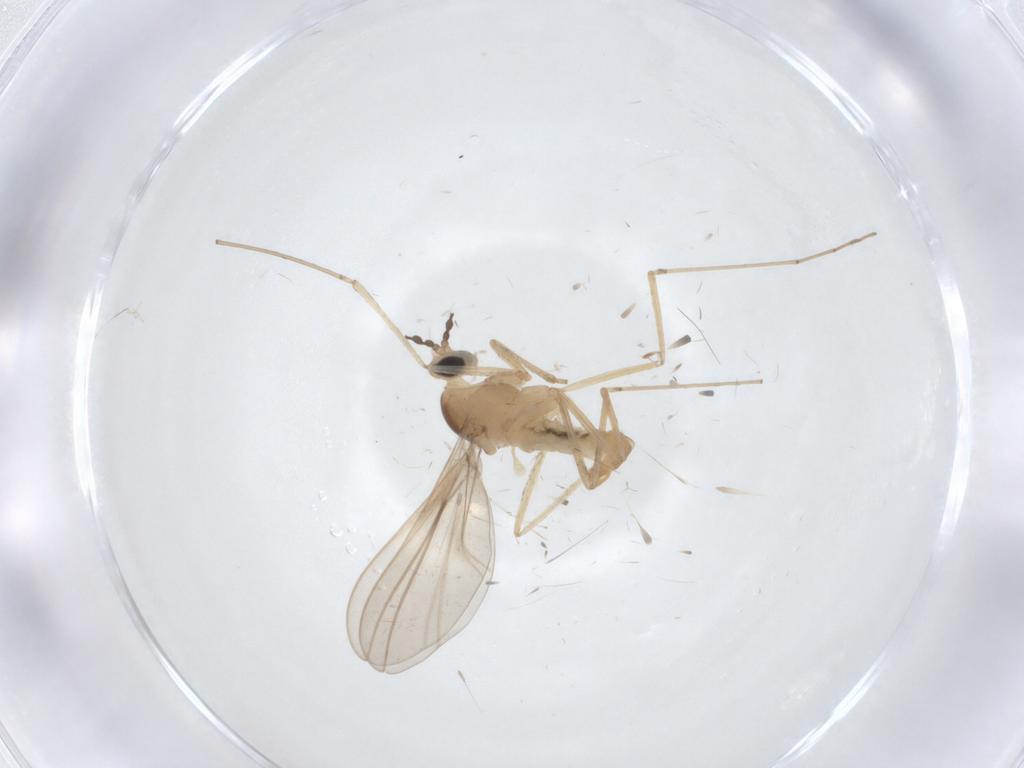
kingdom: Animalia
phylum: Arthropoda
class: Insecta
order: Diptera
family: Cecidomyiidae
